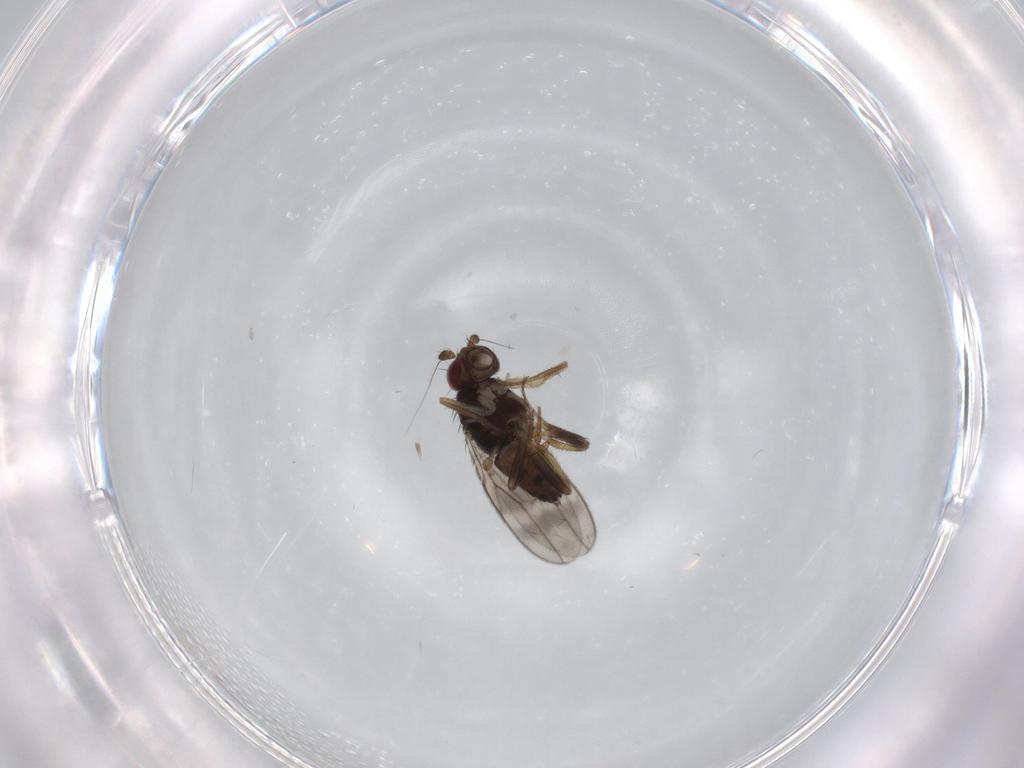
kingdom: Animalia
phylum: Arthropoda
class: Insecta
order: Diptera
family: Sphaeroceridae
